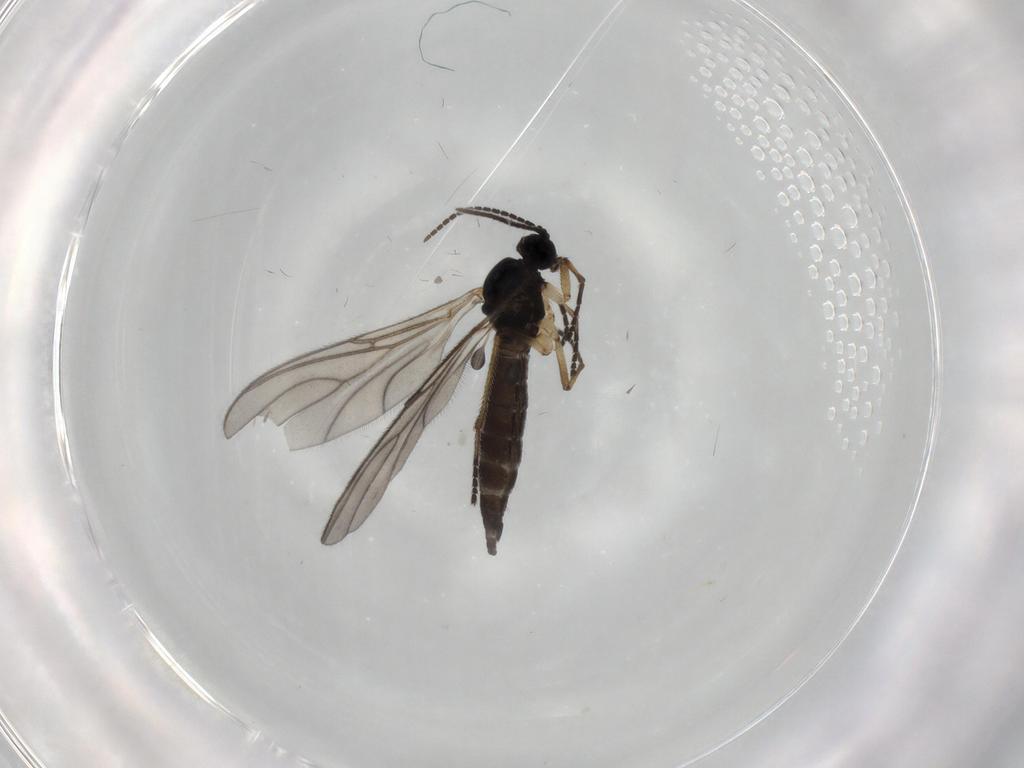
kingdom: Animalia
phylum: Arthropoda
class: Insecta
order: Diptera
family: Sciaridae
